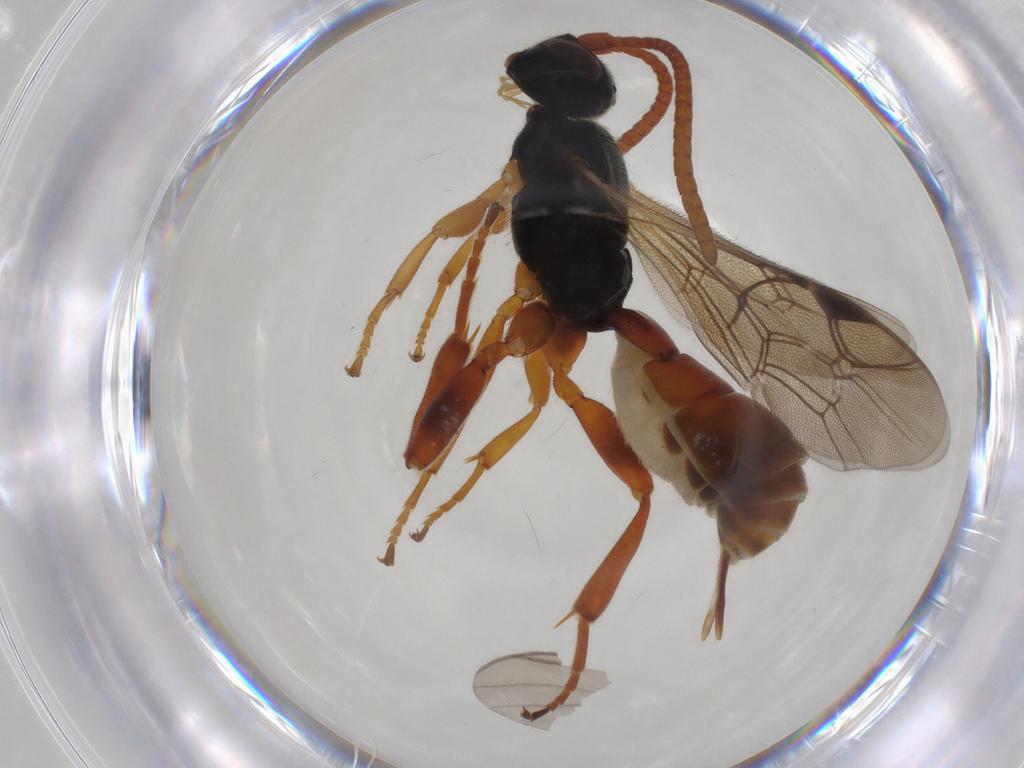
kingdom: Animalia
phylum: Arthropoda
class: Insecta
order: Hymenoptera
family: Ichneumonidae
